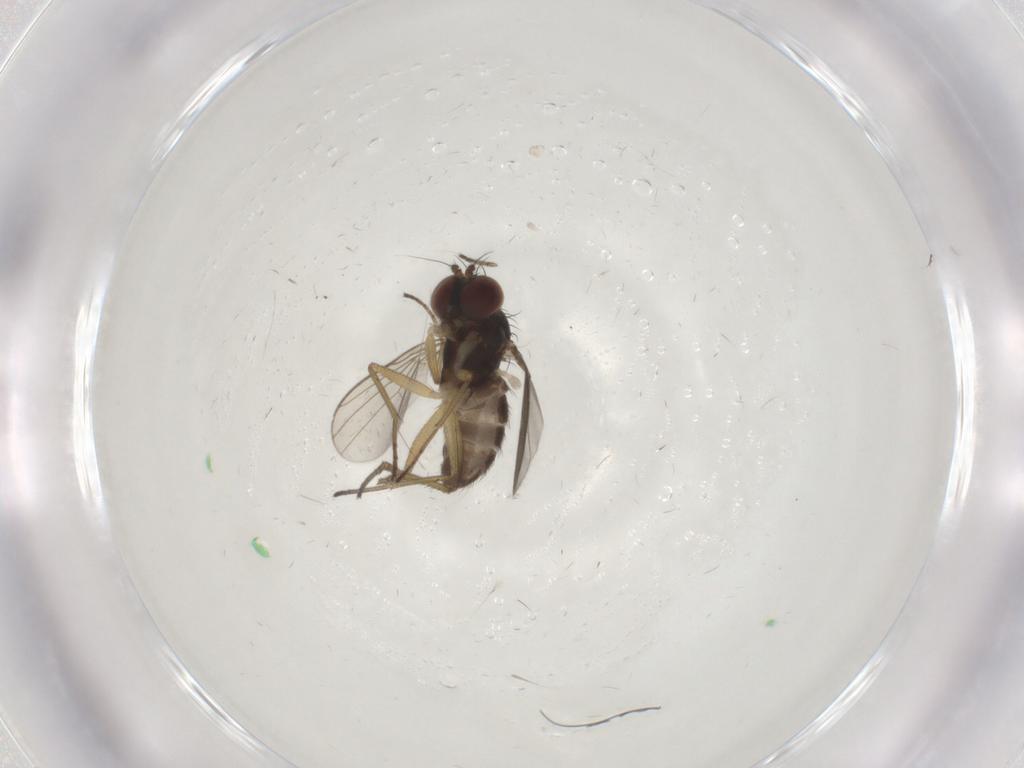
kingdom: Animalia
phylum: Arthropoda
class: Insecta
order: Diptera
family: Dolichopodidae
